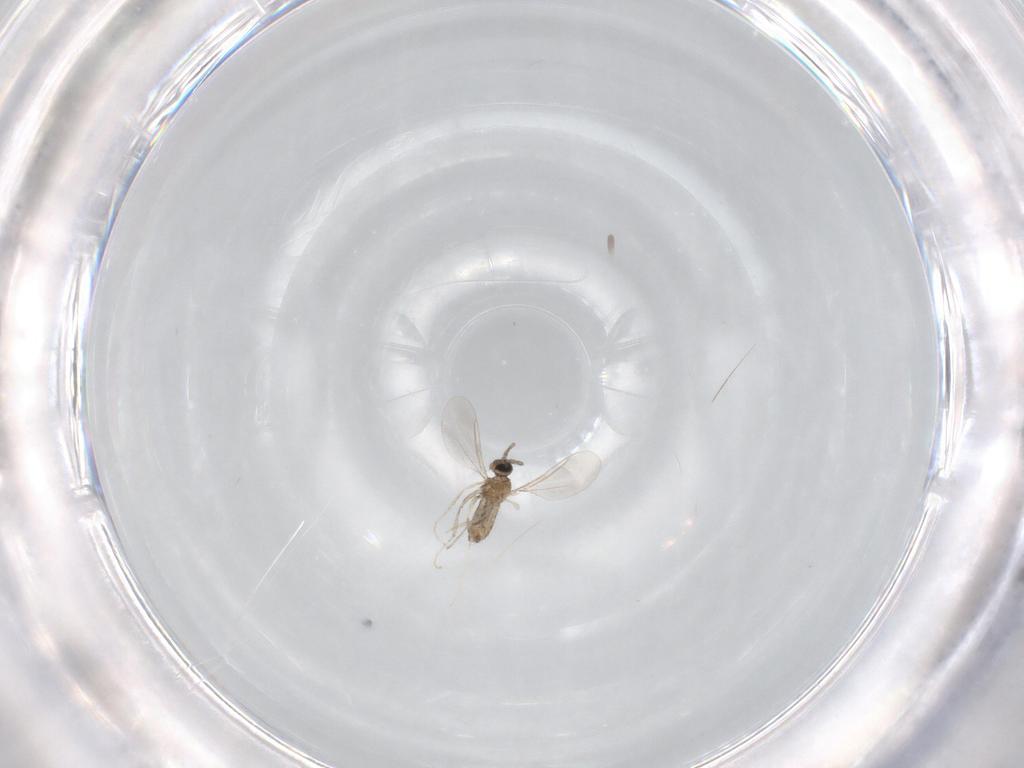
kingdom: Animalia
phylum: Arthropoda
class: Insecta
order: Diptera
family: Cecidomyiidae
